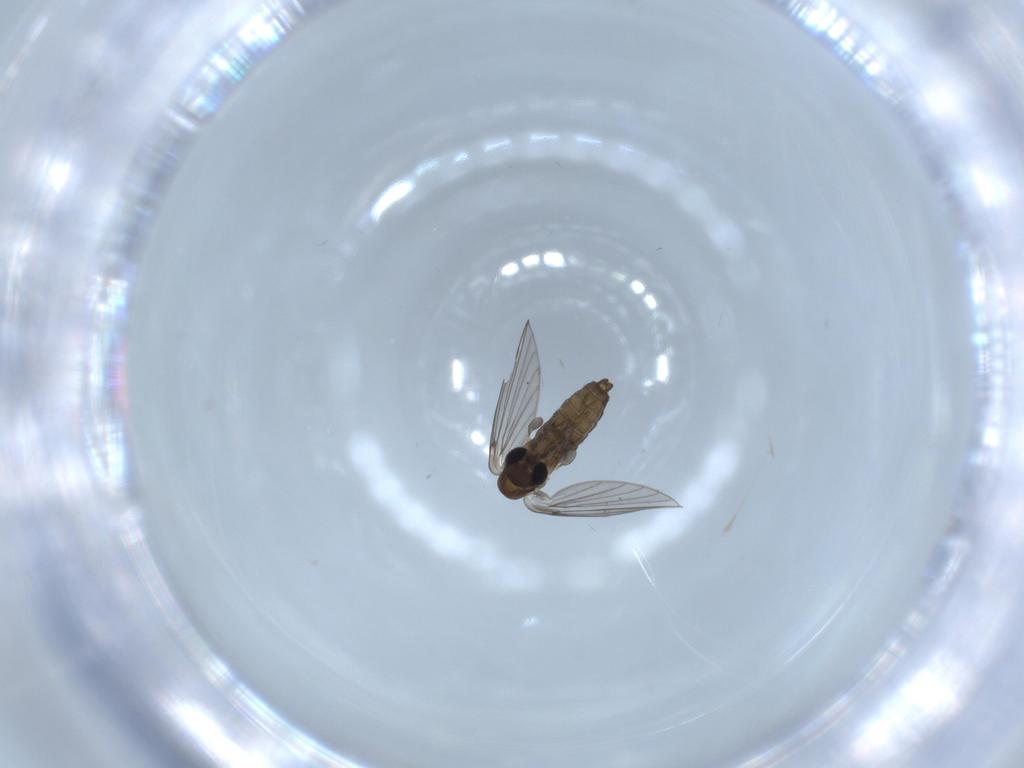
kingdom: Animalia
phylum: Arthropoda
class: Insecta
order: Diptera
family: Psychodidae
